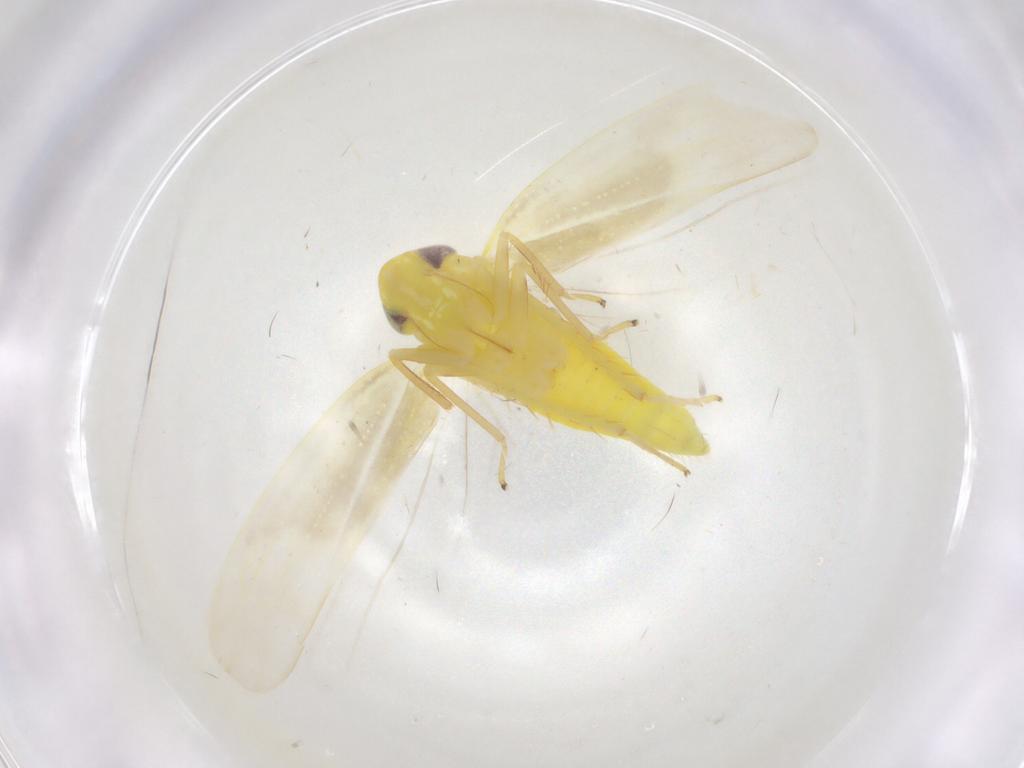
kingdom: Animalia
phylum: Arthropoda
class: Insecta
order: Hemiptera
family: Cicadellidae
